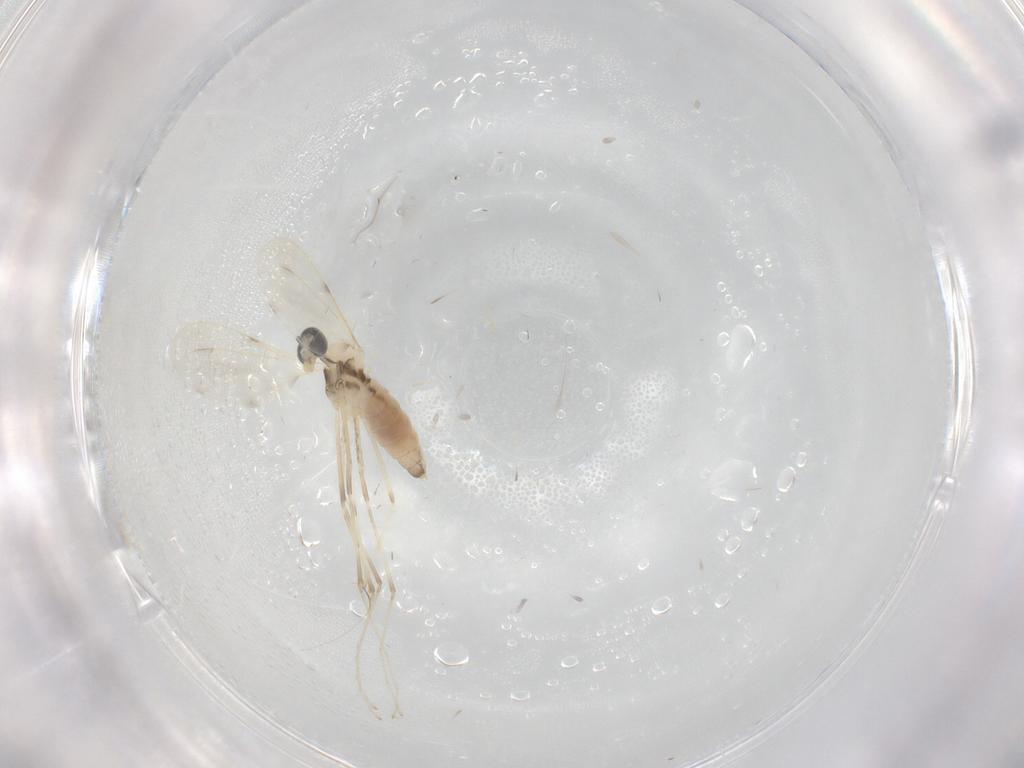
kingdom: Animalia
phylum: Arthropoda
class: Insecta
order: Diptera
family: Cecidomyiidae
